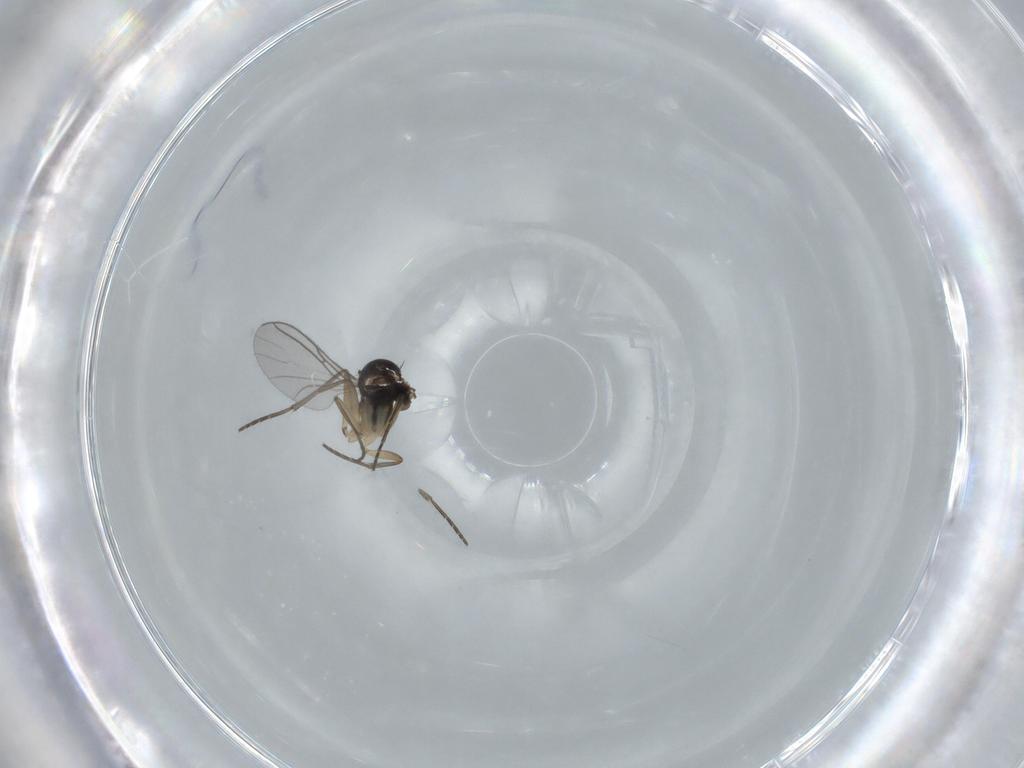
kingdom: Animalia
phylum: Arthropoda
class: Insecta
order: Diptera
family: Sciaridae
